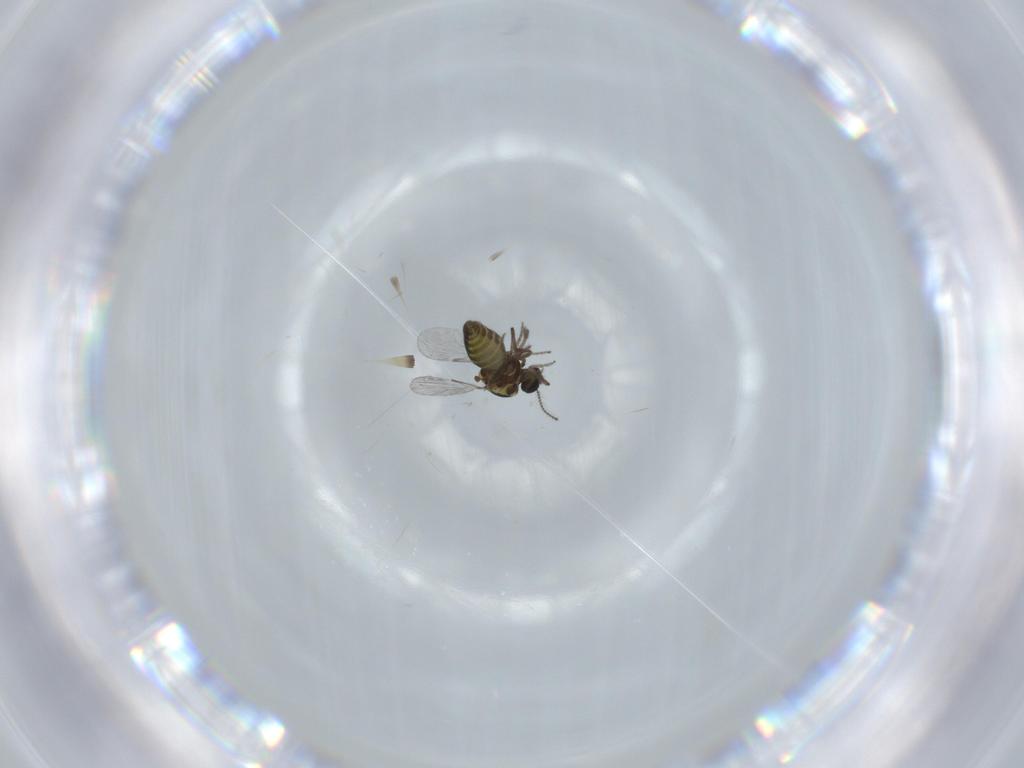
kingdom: Animalia
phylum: Arthropoda
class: Insecta
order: Diptera
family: Ceratopogonidae
